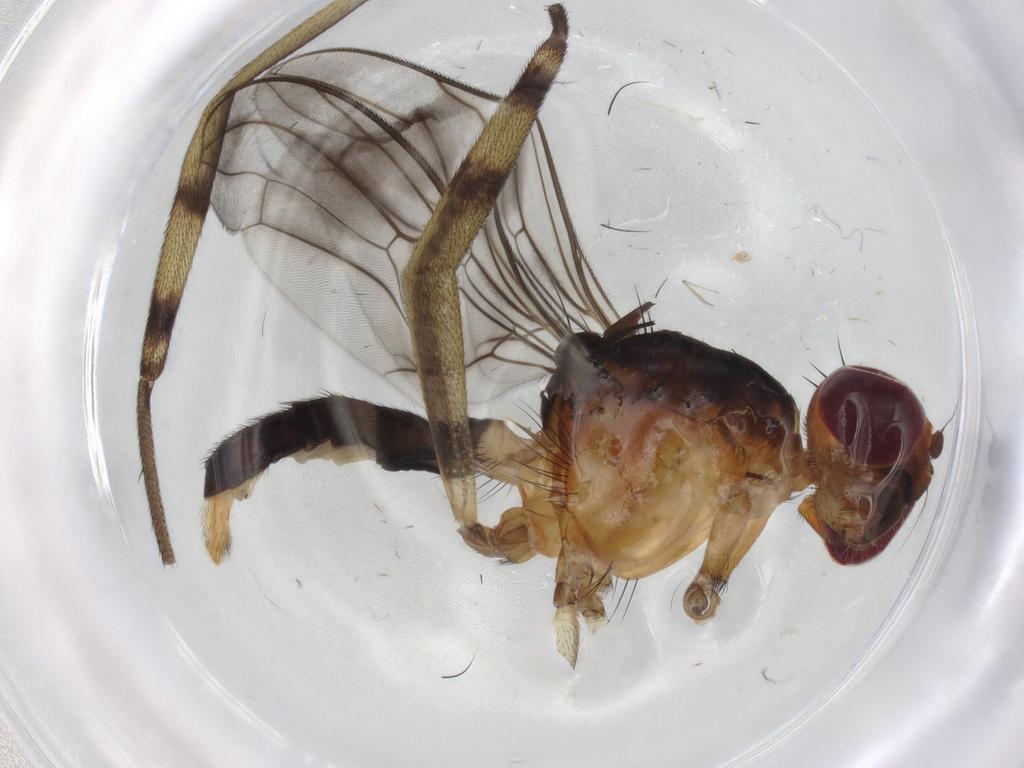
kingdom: Animalia
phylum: Arthropoda
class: Insecta
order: Diptera
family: Micropezidae
